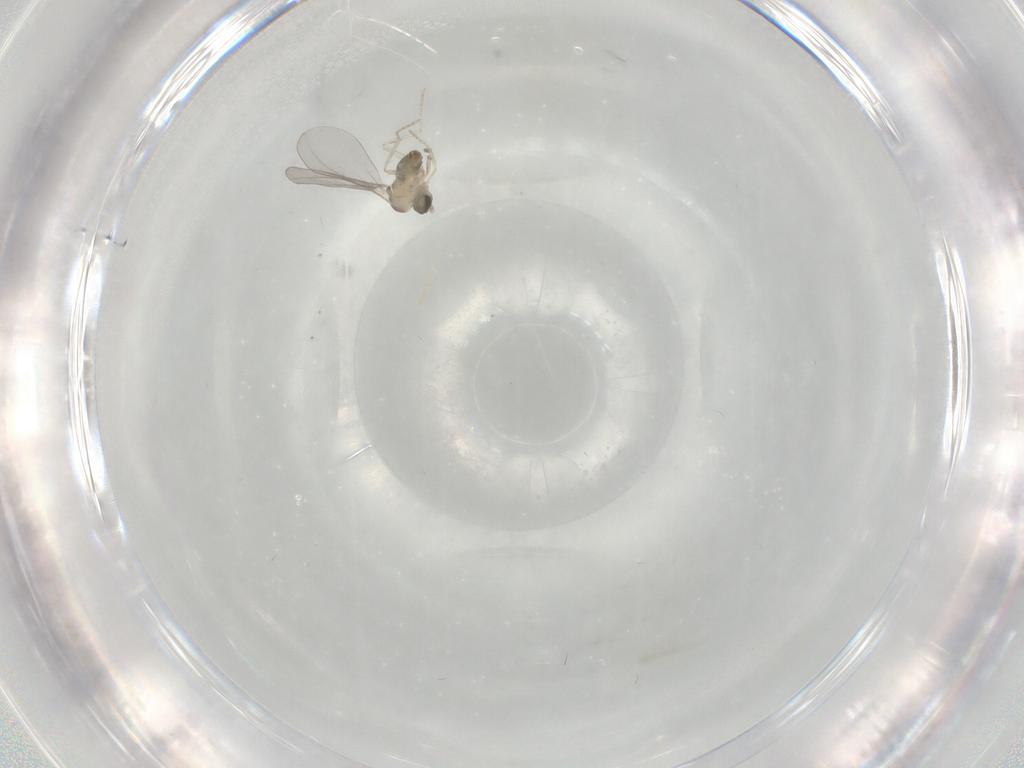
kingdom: Animalia
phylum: Arthropoda
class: Insecta
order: Diptera
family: Cecidomyiidae
